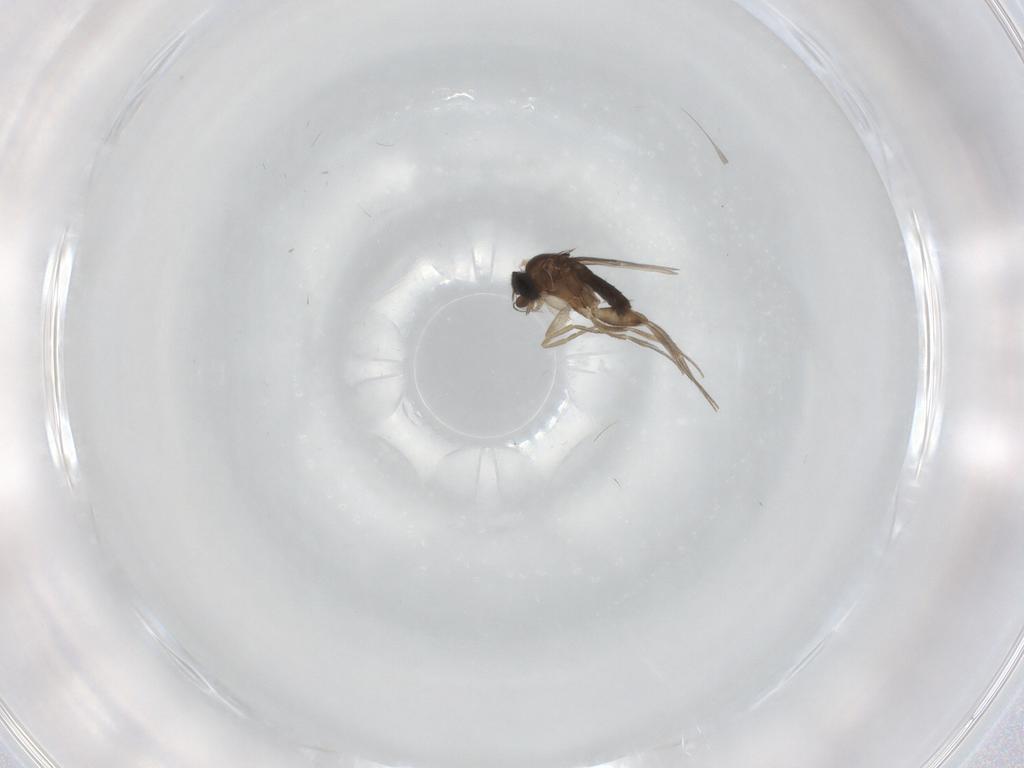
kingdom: Animalia
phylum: Arthropoda
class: Insecta
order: Diptera
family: Phoridae
